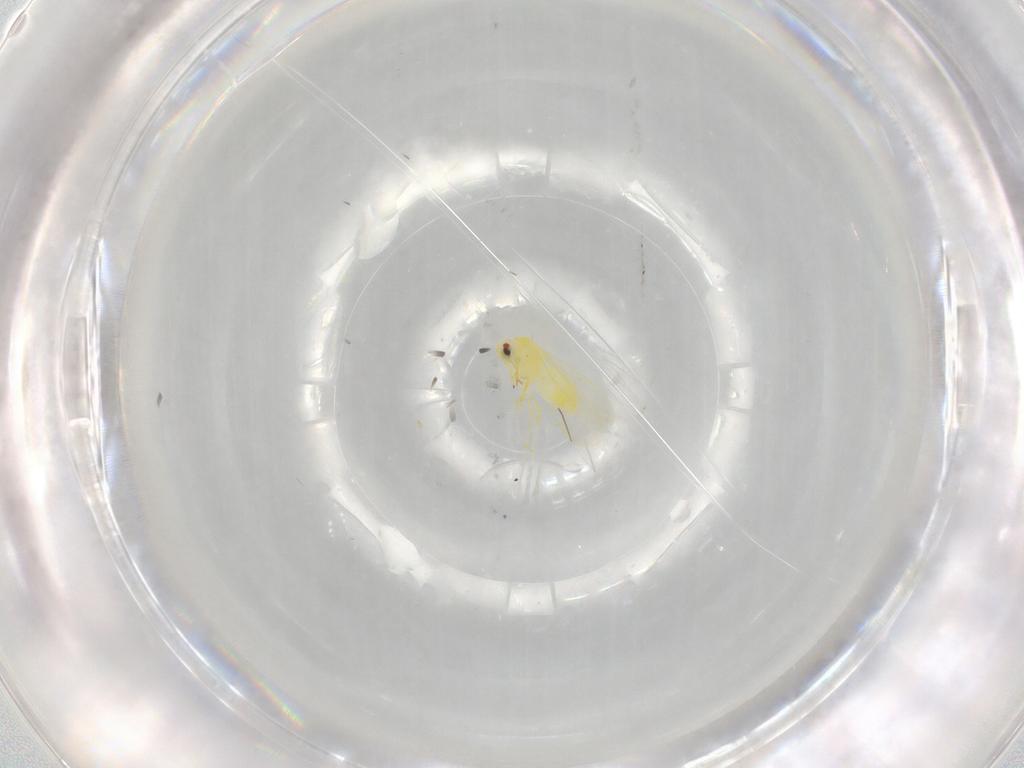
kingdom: Animalia
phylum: Arthropoda
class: Insecta
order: Hemiptera
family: Aleyrodidae
